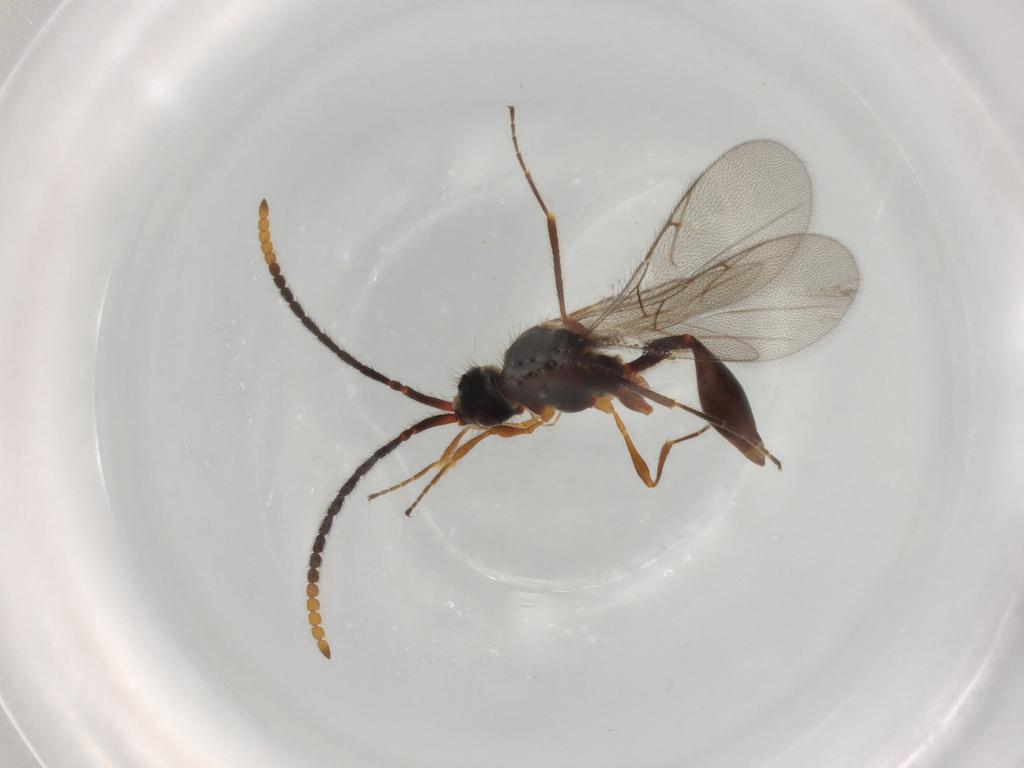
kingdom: Animalia
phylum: Arthropoda
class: Insecta
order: Hymenoptera
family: Diapriidae
